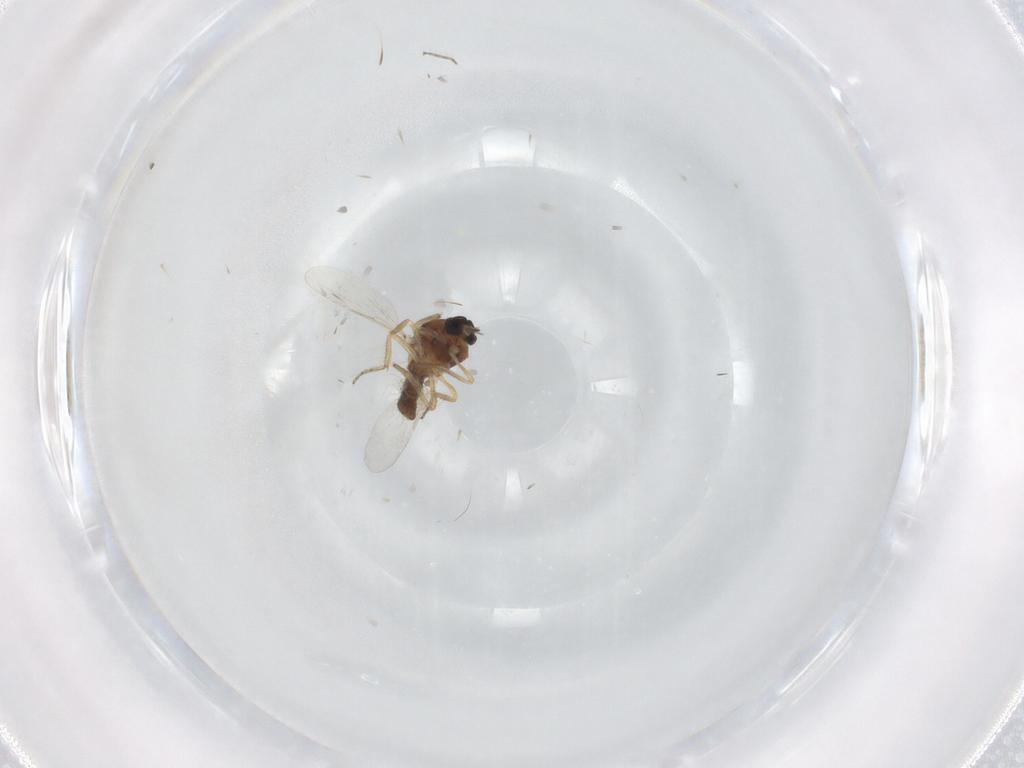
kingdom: Animalia
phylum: Arthropoda
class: Insecta
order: Diptera
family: Ceratopogonidae
